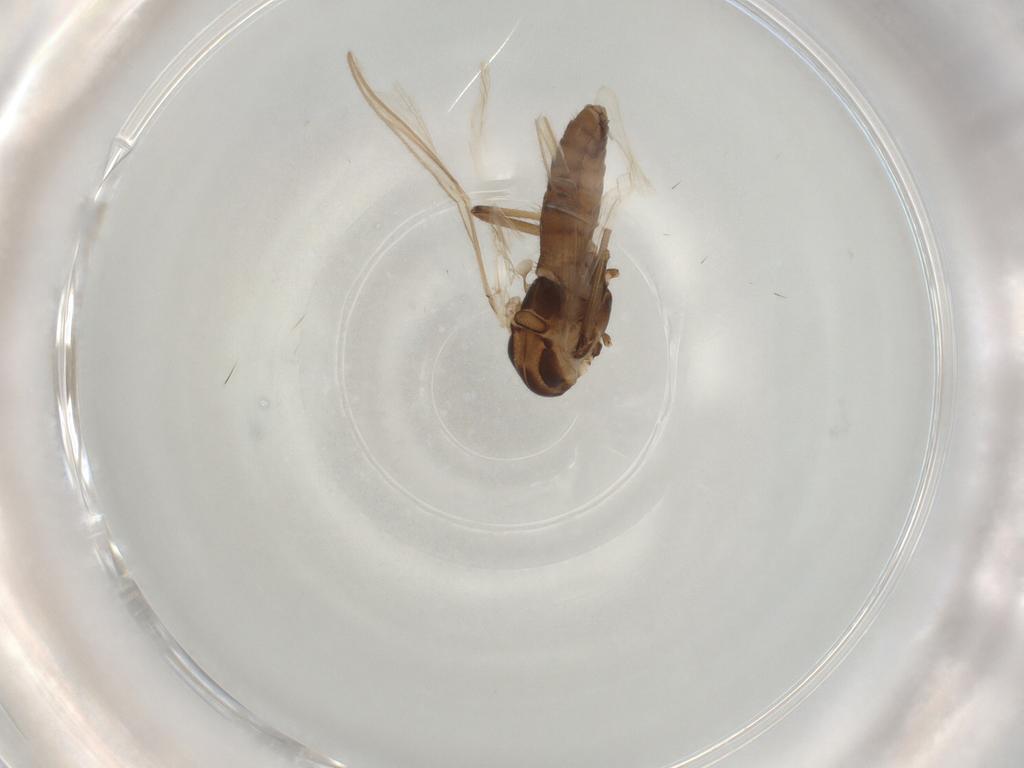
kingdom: Animalia
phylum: Arthropoda
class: Insecta
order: Diptera
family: Chironomidae
